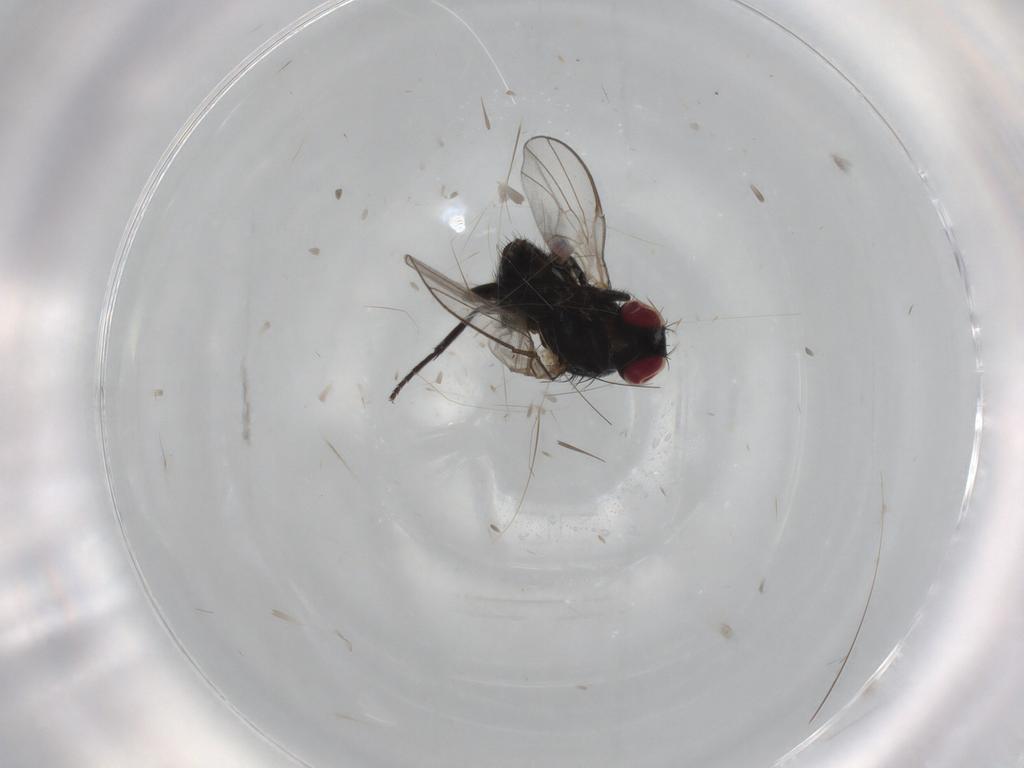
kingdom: Animalia
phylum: Arthropoda
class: Insecta
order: Diptera
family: Agromyzidae
